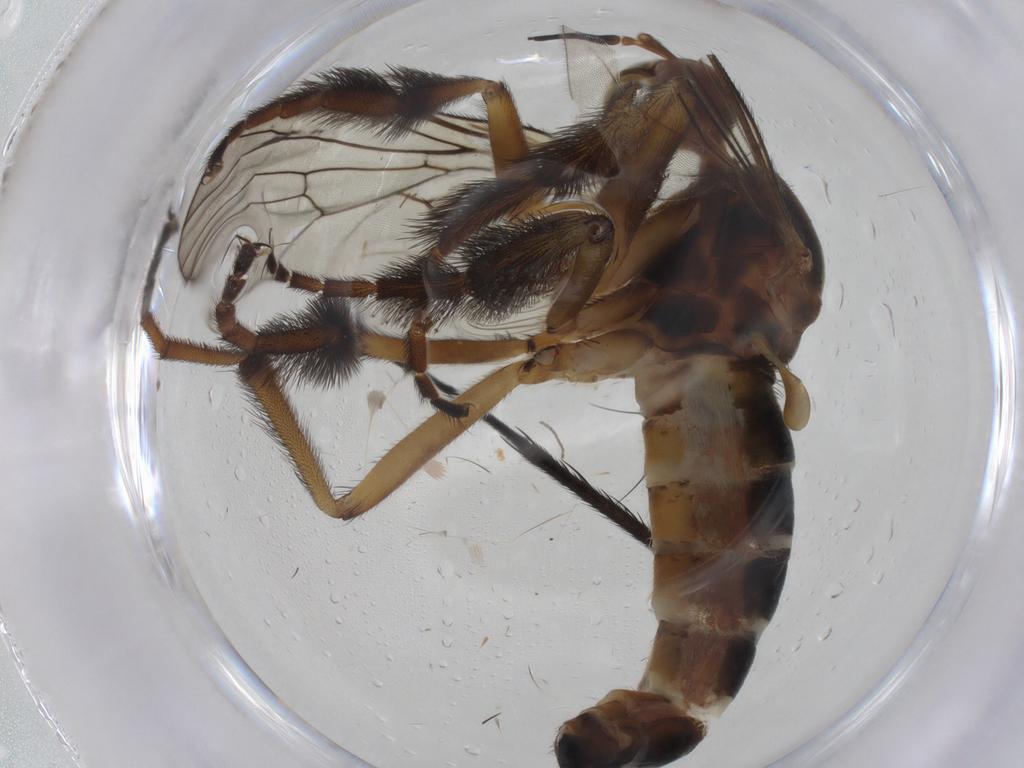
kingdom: Animalia
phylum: Arthropoda
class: Insecta
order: Diptera
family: Empididae
